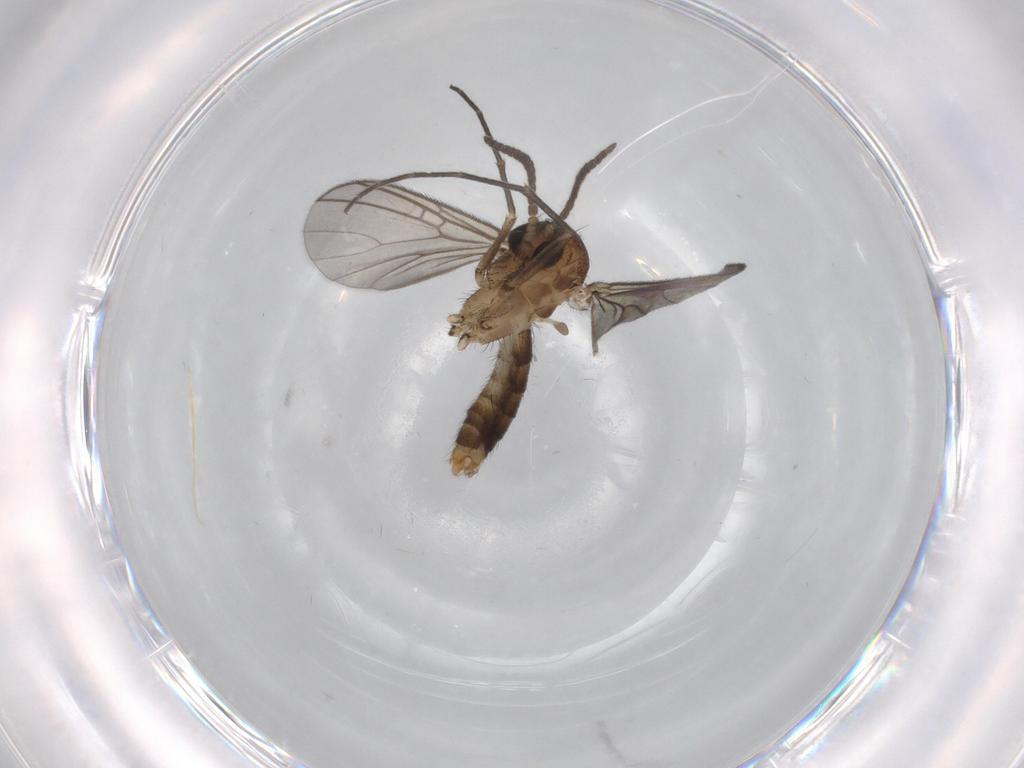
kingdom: Animalia
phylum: Arthropoda
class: Insecta
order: Diptera
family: Mycetophilidae
